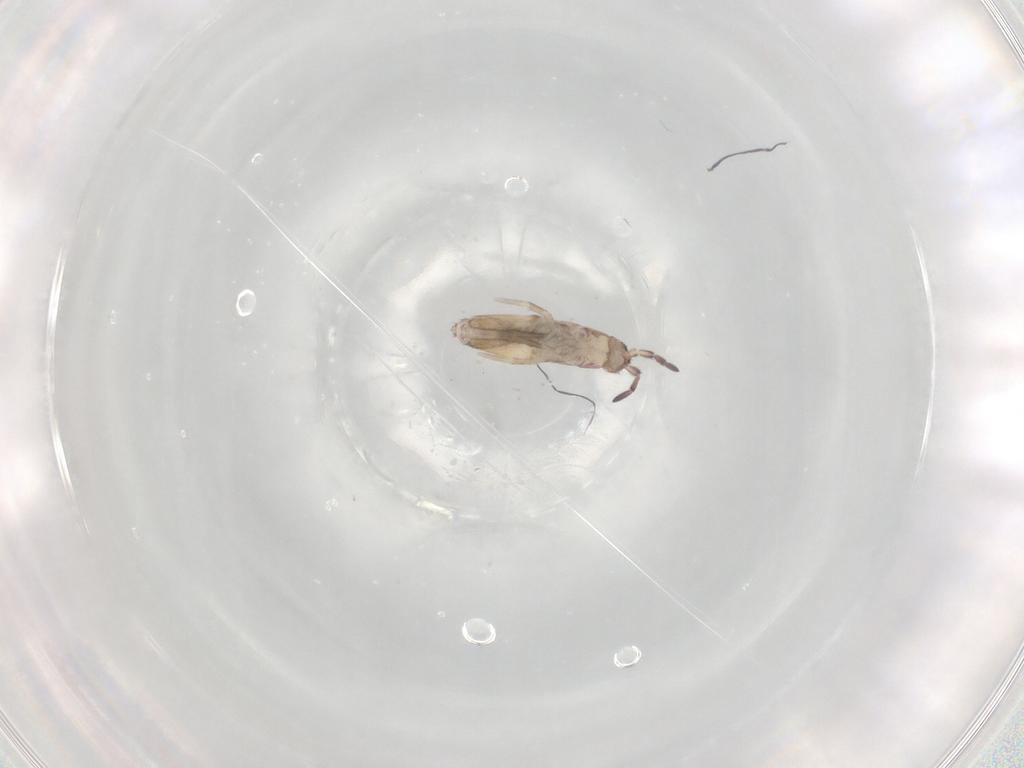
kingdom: Animalia
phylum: Arthropoda
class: Collembola
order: Entomobryomorpha
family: Entomobryidae
